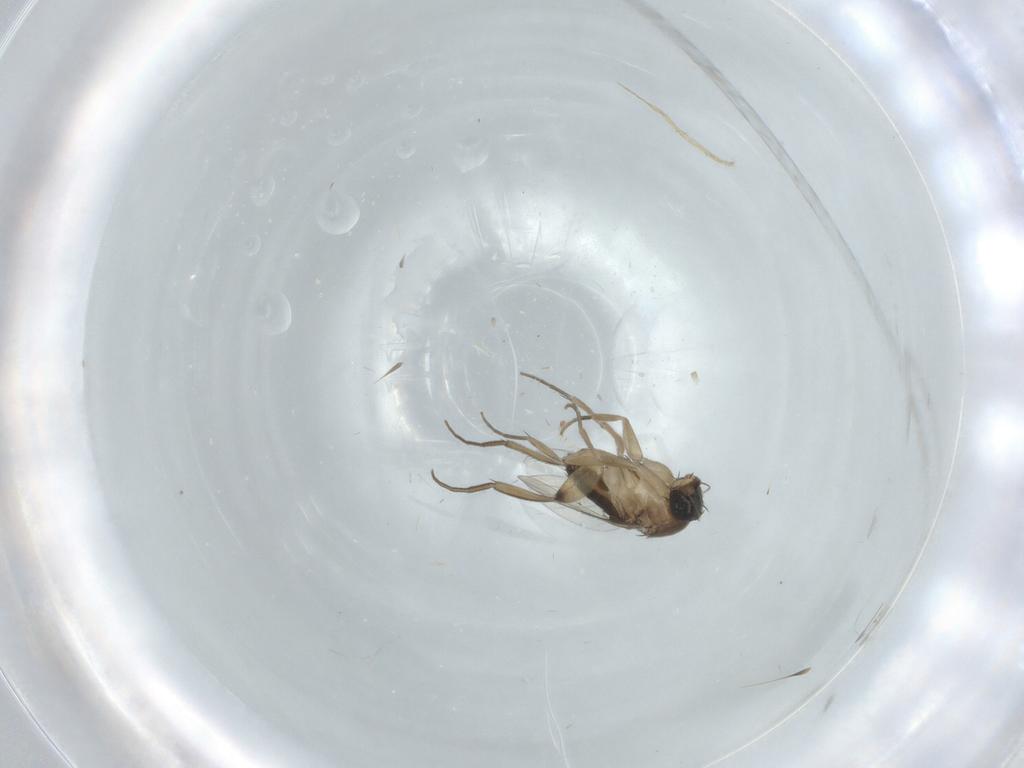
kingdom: Animalia
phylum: Arthropoda
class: Insecta
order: Diptera
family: Phoridae
